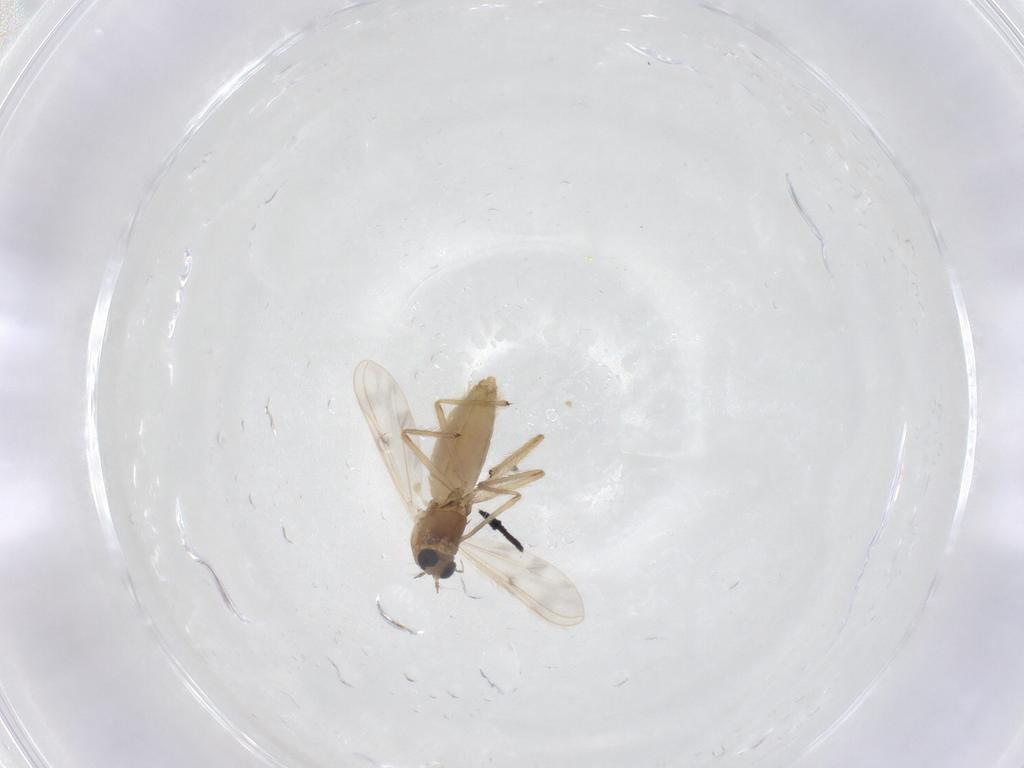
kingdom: Animalia
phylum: Arthropoda
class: Insecta
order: Diptera
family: Chironomidae
